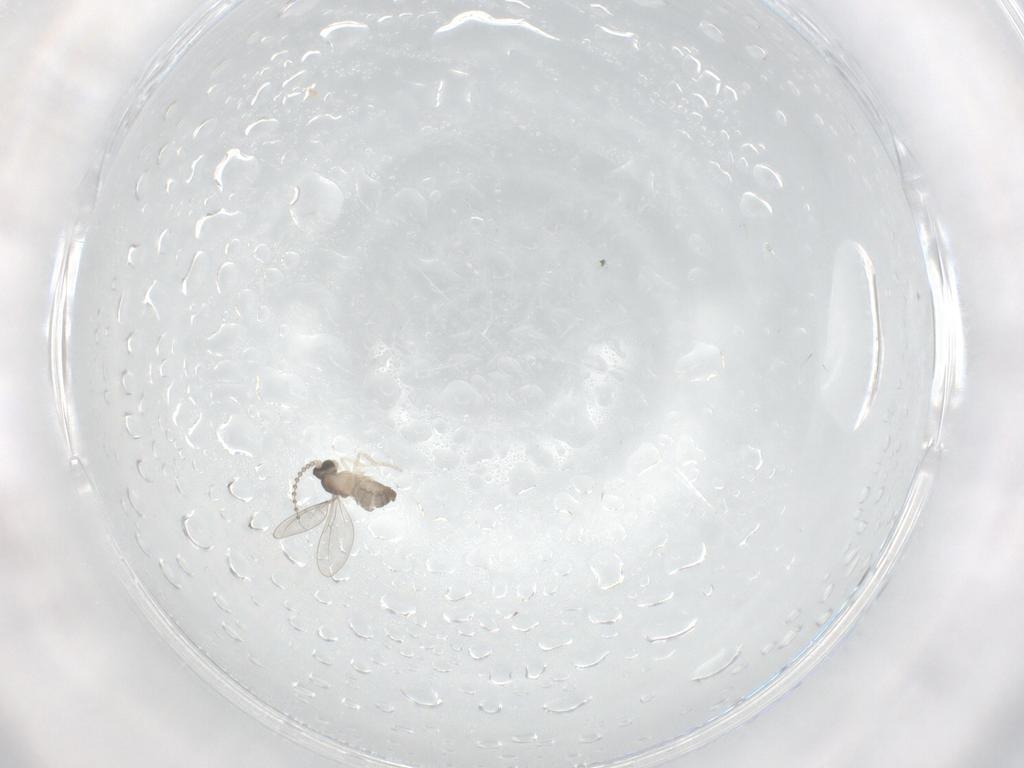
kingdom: Animalia
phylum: Arthropoda
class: Insecta
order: Diptera
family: Cecidomyiidae
